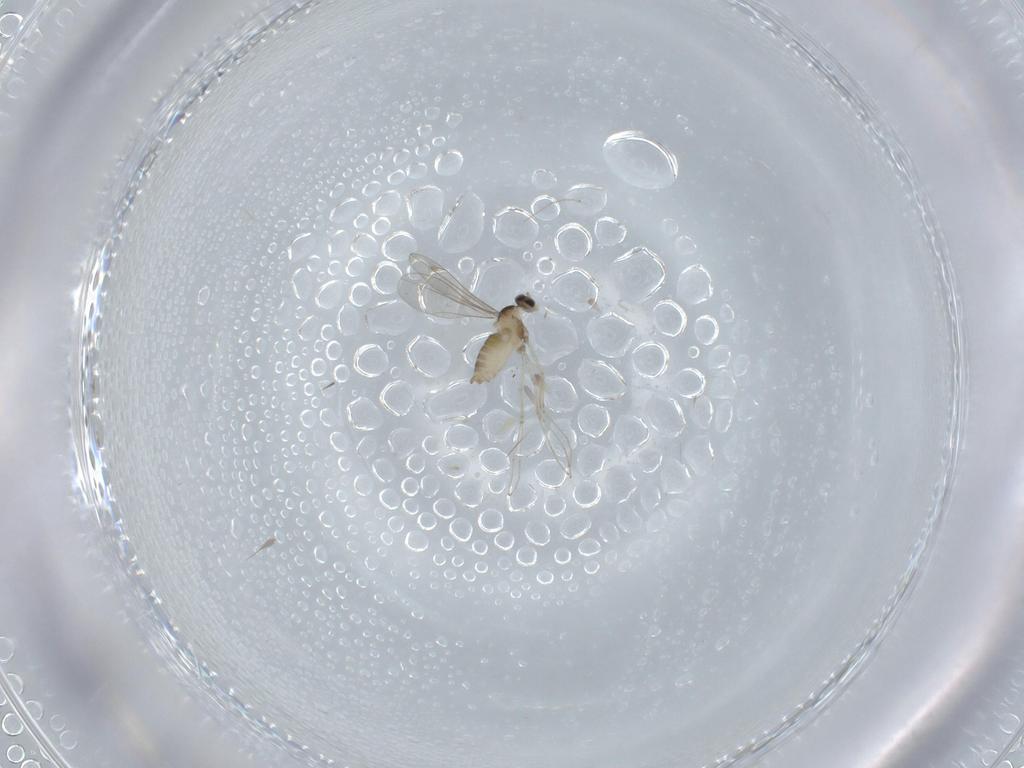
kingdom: Animalia
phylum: Arthropoda
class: Insecta
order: Diptera
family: Cecidomyiidae
